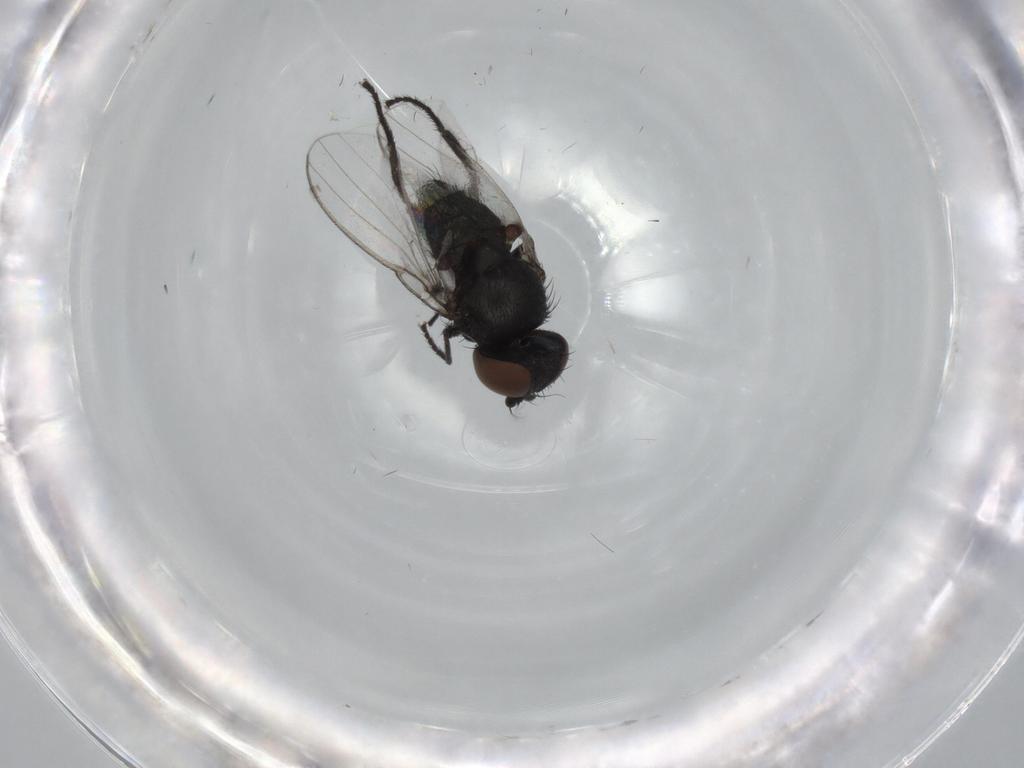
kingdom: Animalia
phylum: Arthropoda
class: Insecta
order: Diptera
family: Milichiidae
